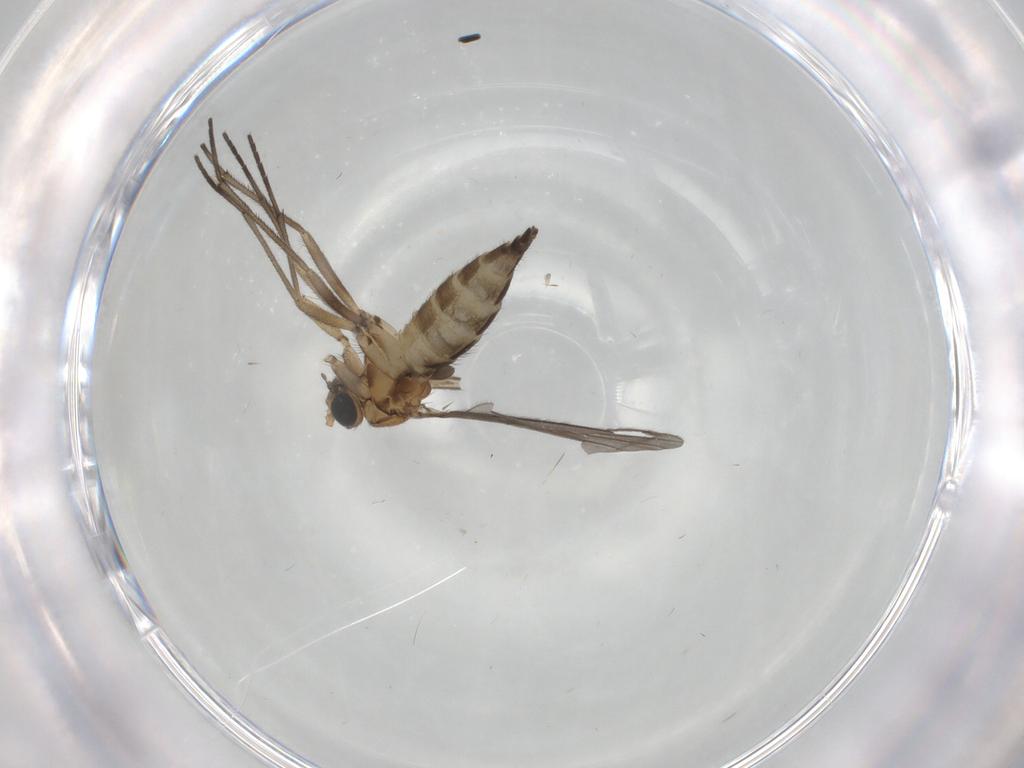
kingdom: Animalia
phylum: Arthropoda
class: Insecta
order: Diptera
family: Sciaridae
